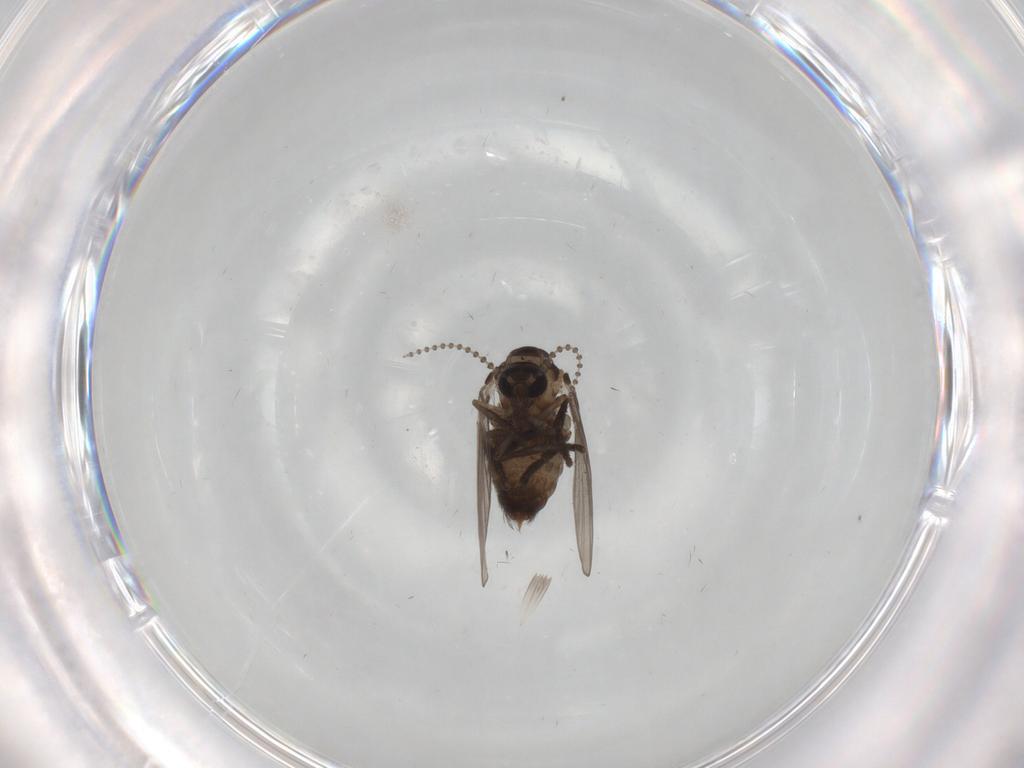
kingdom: Animalia
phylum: Arthropoda
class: Insecta
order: Diptera
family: Psychodidae
